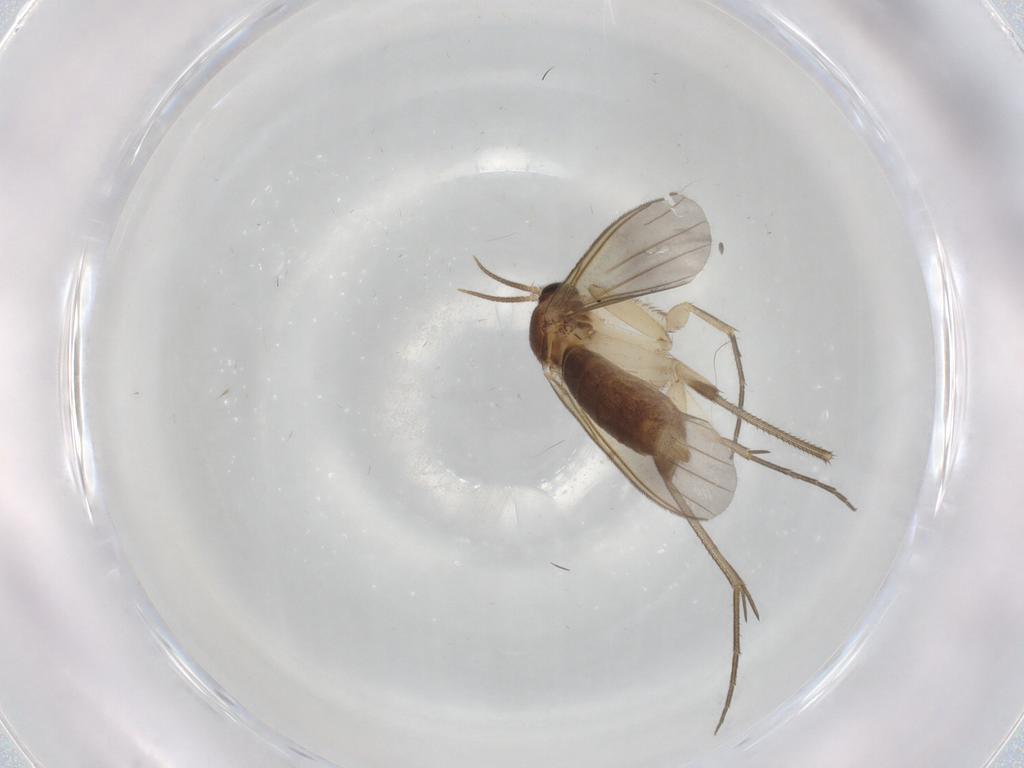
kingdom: Animalia
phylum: Arthropoda
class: Insecta
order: Diptera
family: Mycetophilidae
